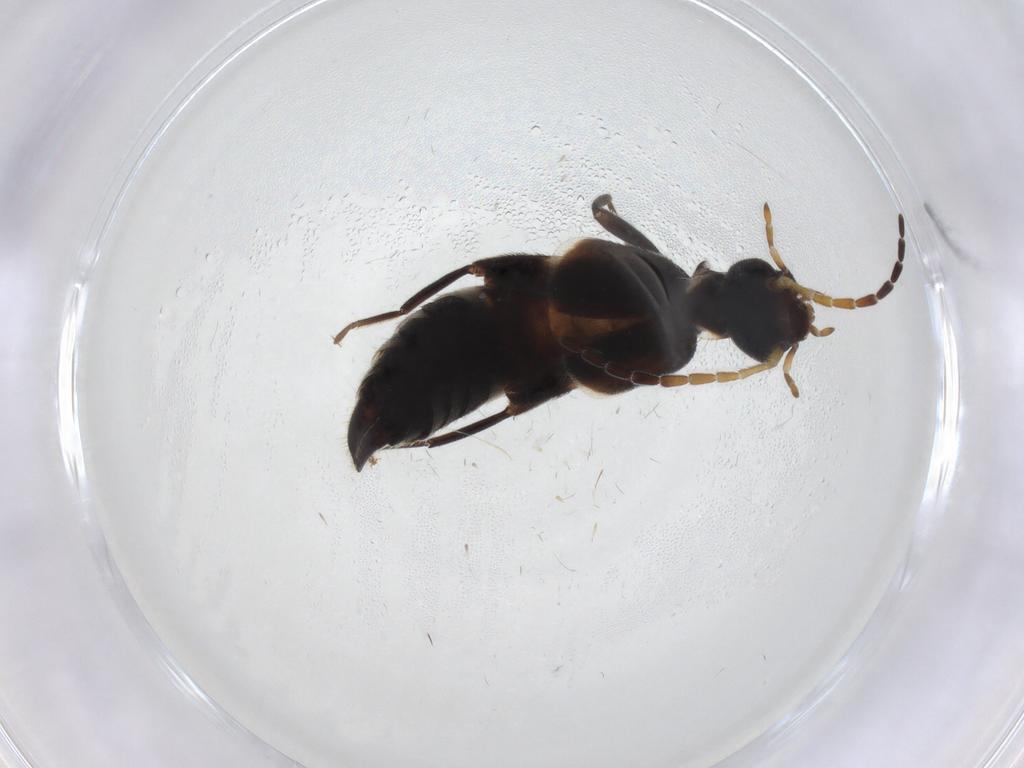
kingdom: Animalia
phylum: Arthropoda
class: Insecta
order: Dermaptera
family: Forficulidae
